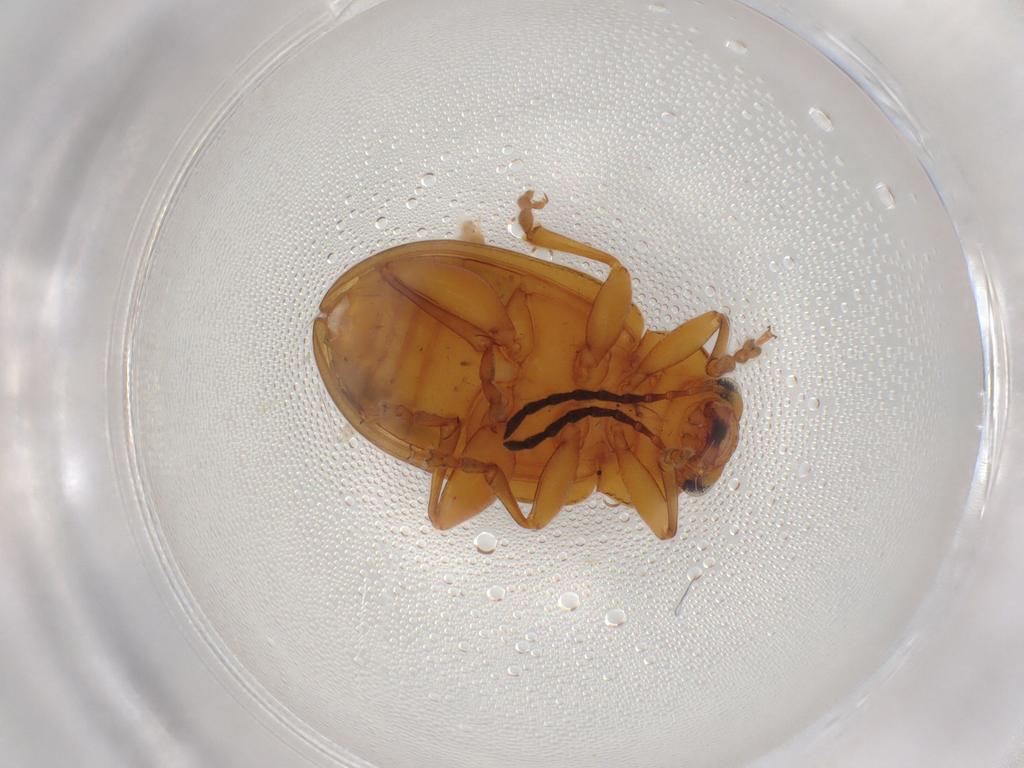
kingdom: Animalia
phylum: Arthropoda
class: Insecta
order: Coleoptera
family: Chrysomelidae
